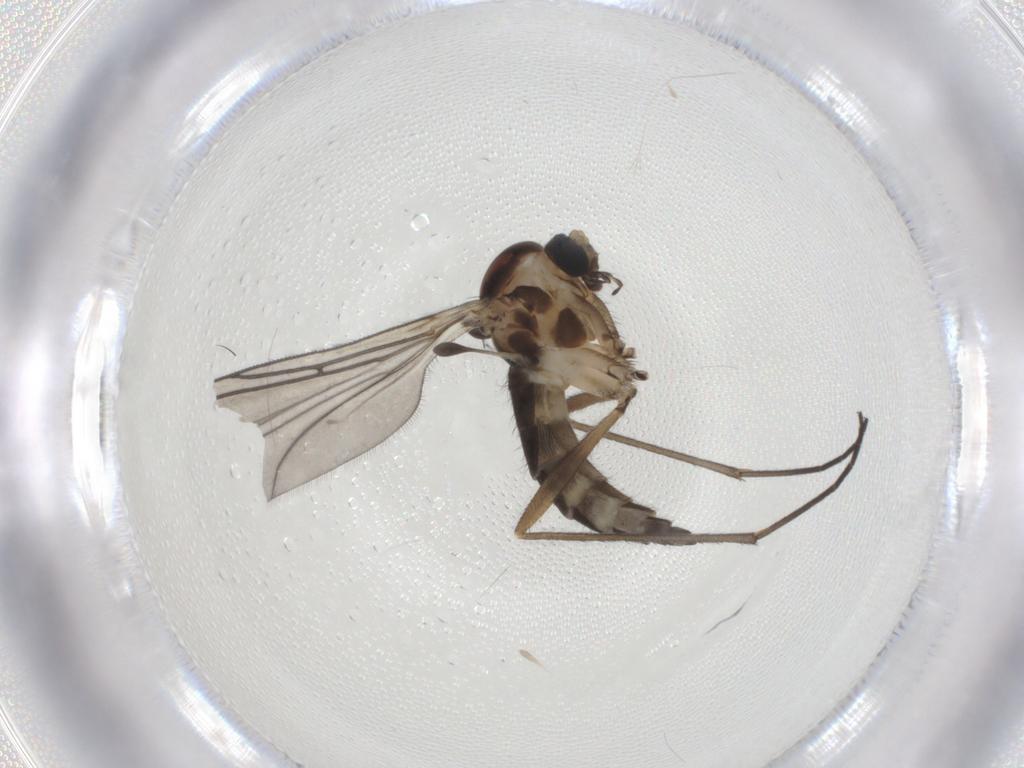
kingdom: Animalia
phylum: Arthropoda
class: Insecta
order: Diptera
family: Sciaridae
